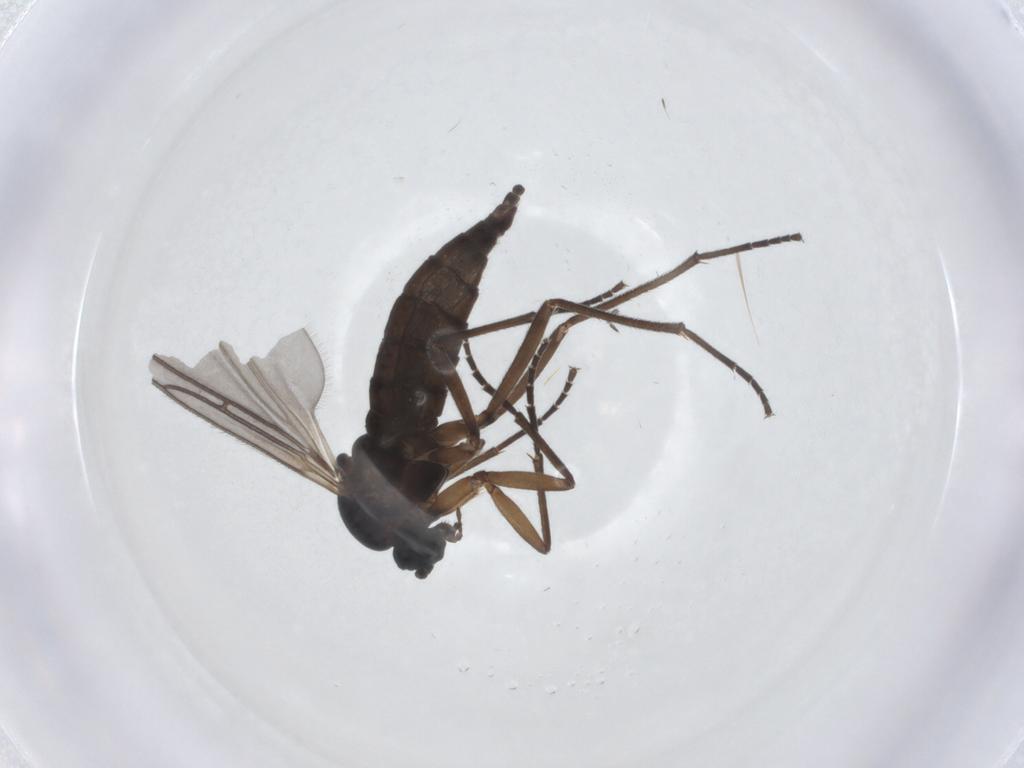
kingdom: Animalia
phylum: Arthropoda
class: Insecta
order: Diptera
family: Sciaridae
